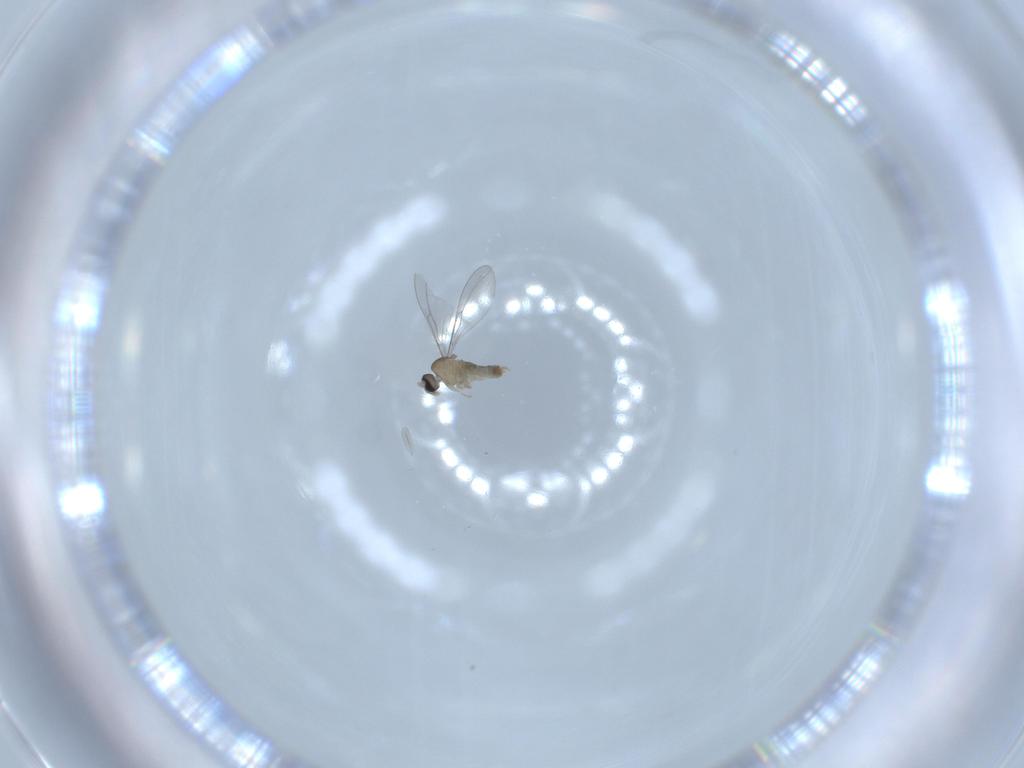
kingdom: Animalia
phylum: Arthropoda
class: Insecta
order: Diptera
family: Cecidomyiidae
